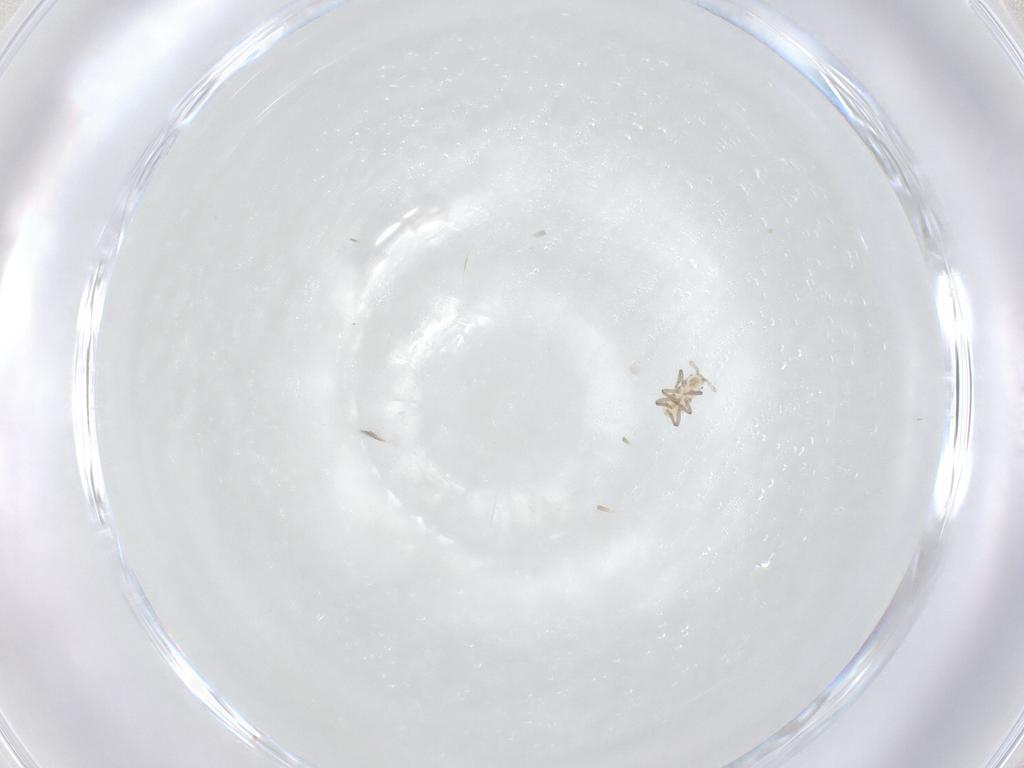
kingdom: Animalia
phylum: Arthropoda
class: Insecta
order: Hemiptera
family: Aphididae
